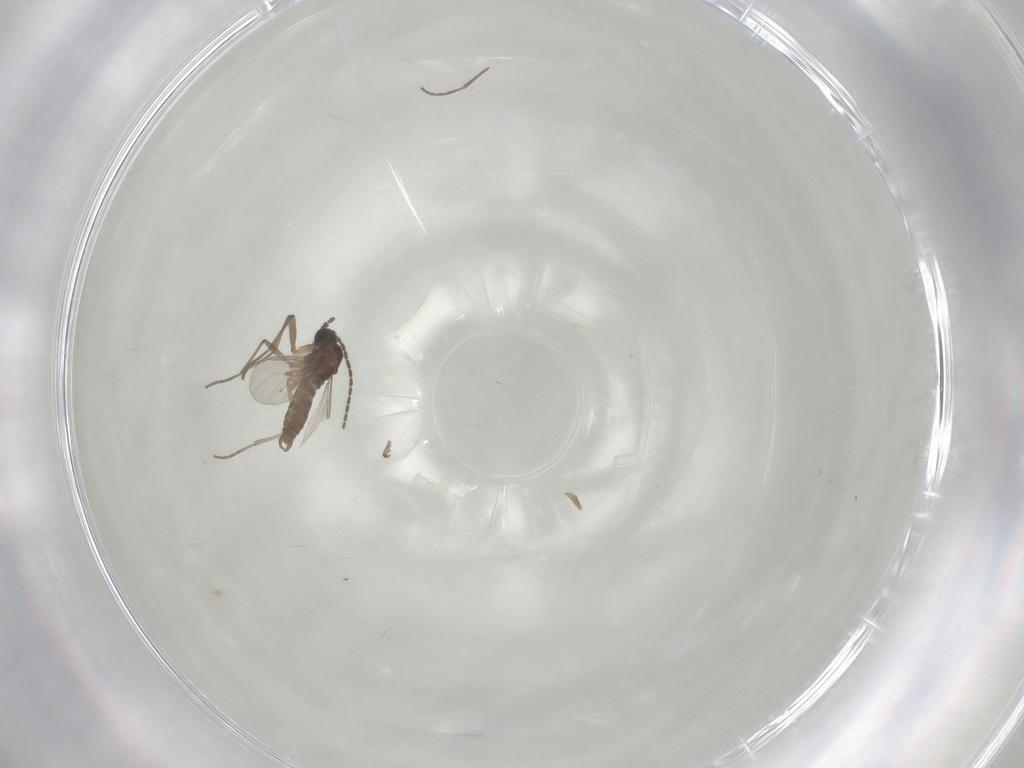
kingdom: Animalia
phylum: Arthropoda
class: Insecta
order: Diptera
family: Sciaridae
